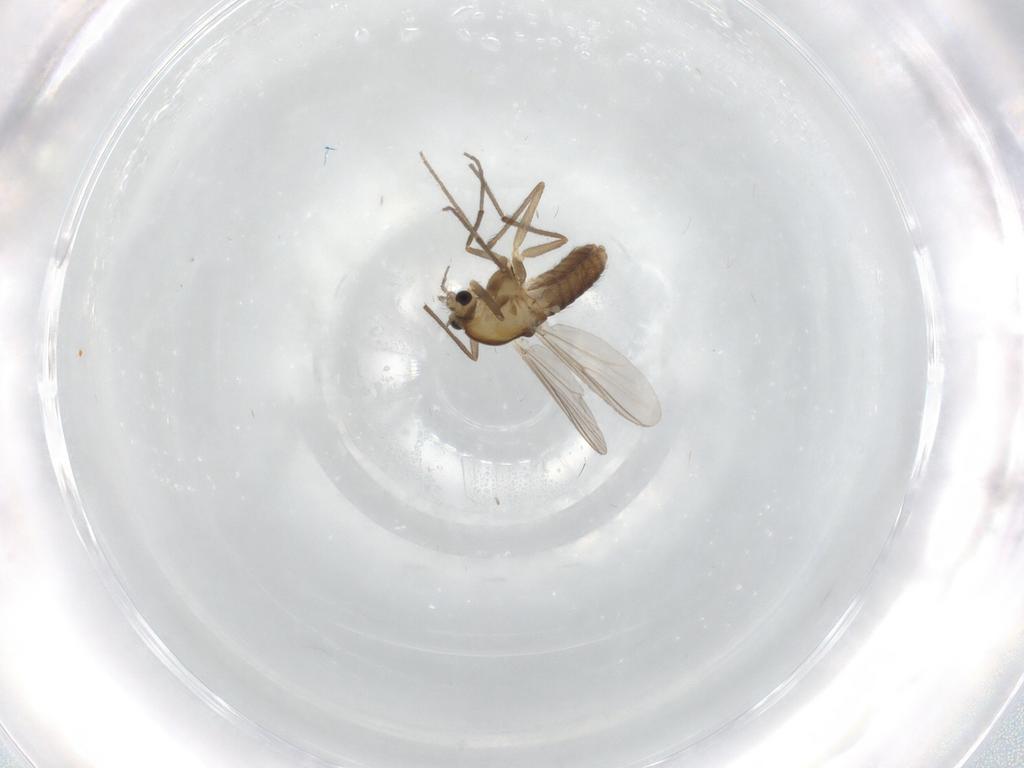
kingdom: Animalia
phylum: Arthropoda
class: Insecta
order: Diptera
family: Chironomidae
